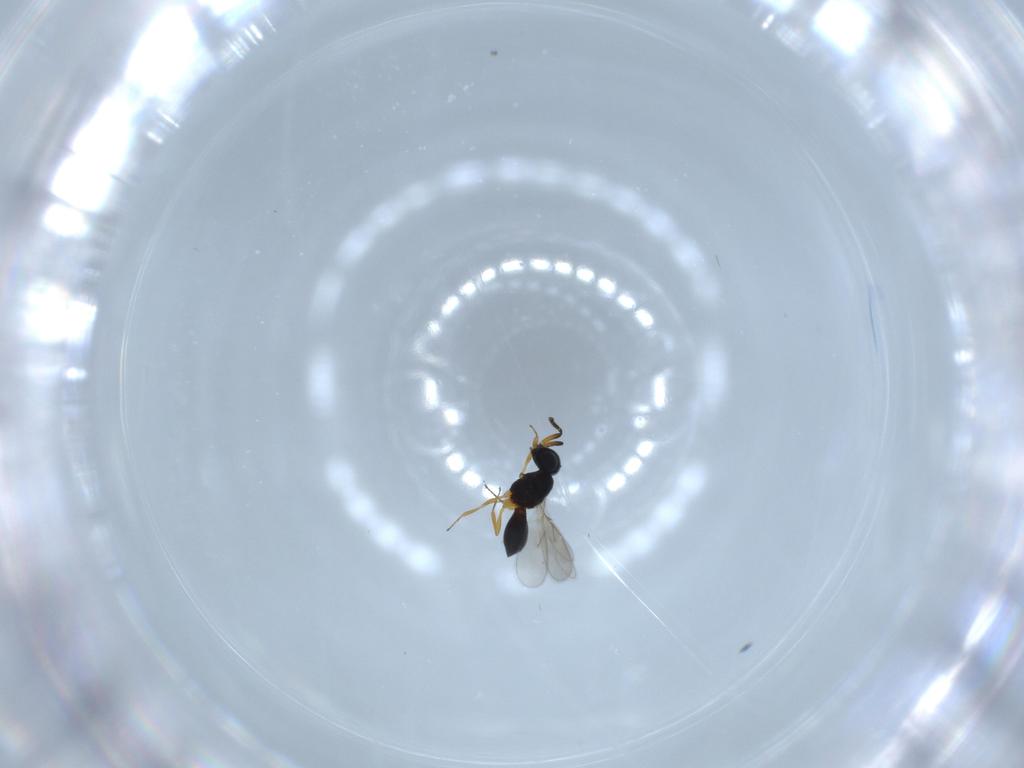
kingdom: Animalia
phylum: Arthropoda
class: Insecta
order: Hymenoptera
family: Scelionidae
